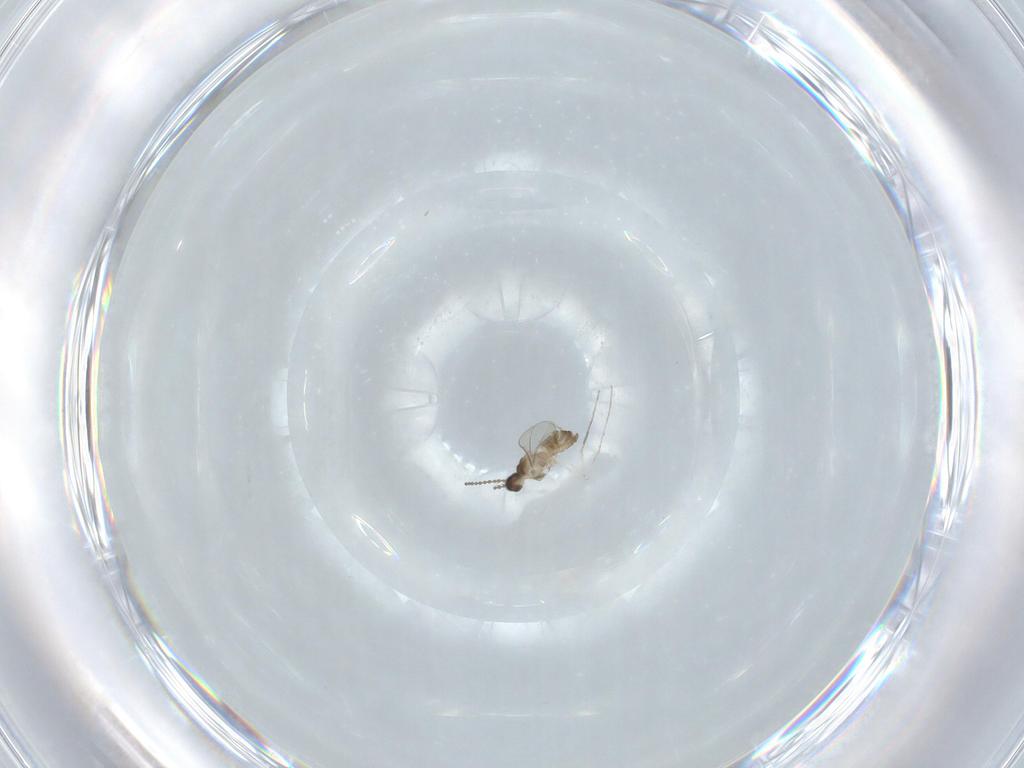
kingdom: Animalia
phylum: Arthropoda
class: Insecta
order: Diptera
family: Cecidomyiidae
